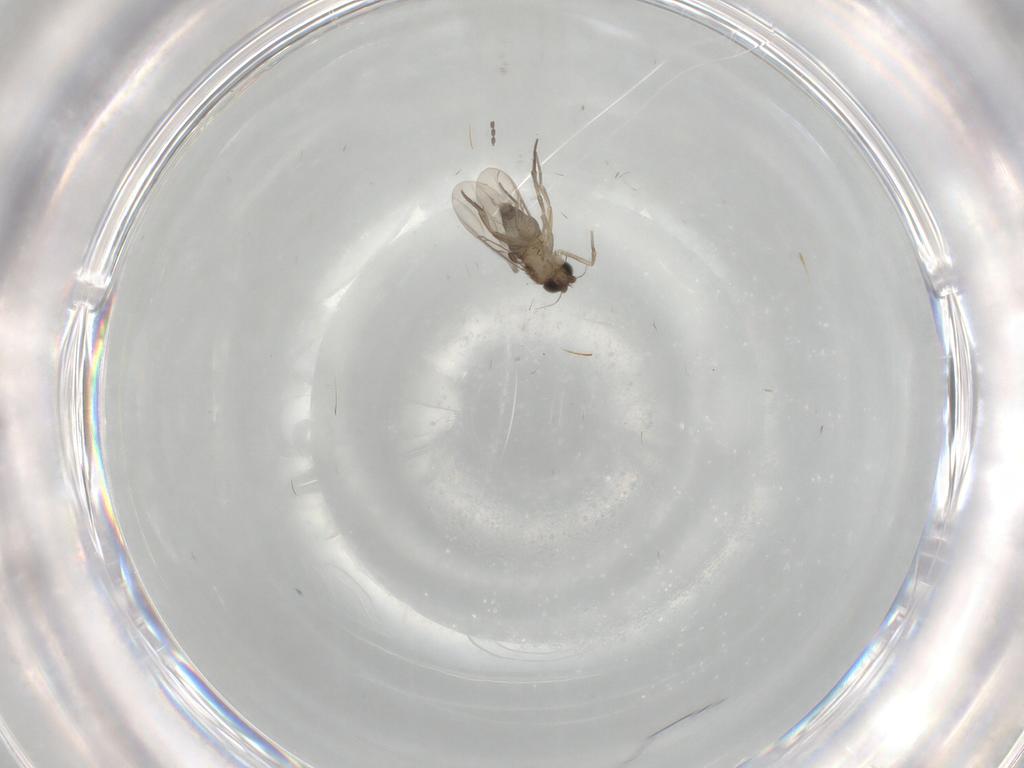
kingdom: Animalia
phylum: Arthropoda
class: Insecta
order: Diptera
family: Phoridae
